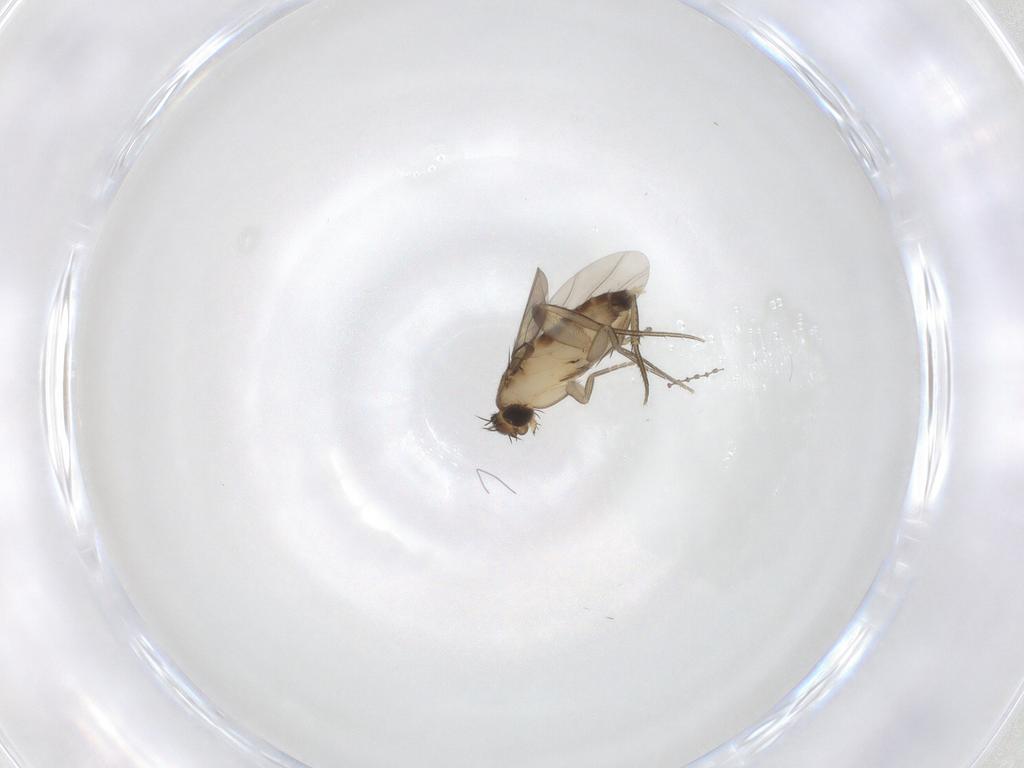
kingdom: Animalia
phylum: Arthropoda
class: Insecta
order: Diptera
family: Phoridae
